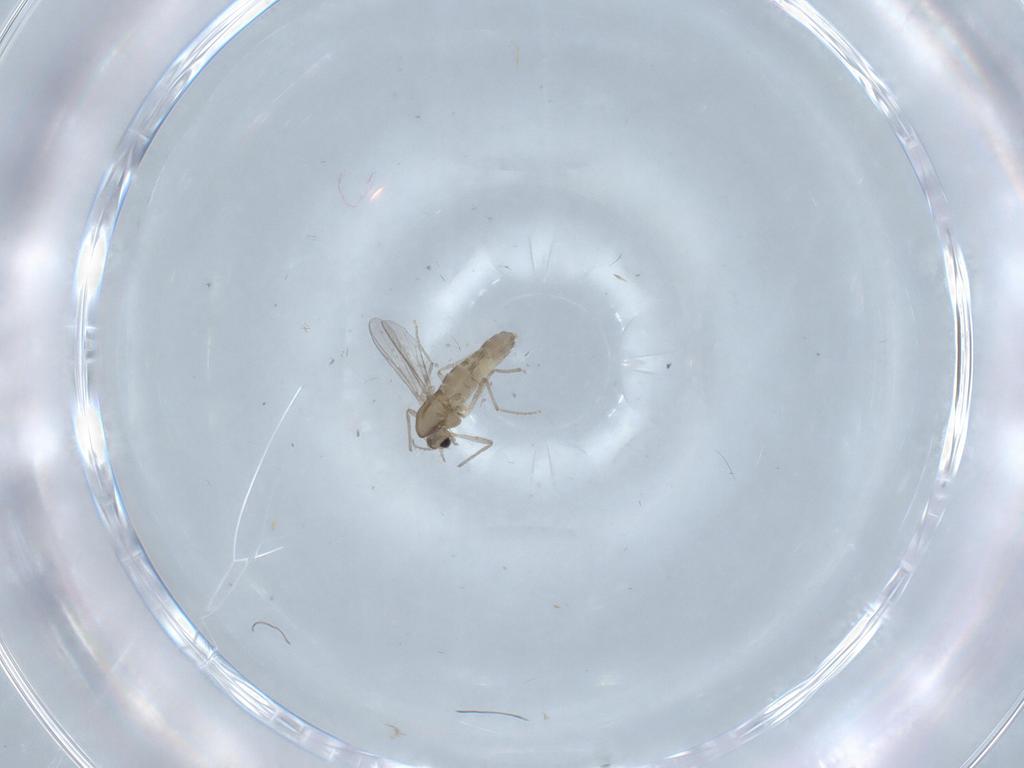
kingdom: Animalia
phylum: Arthropoda
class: Insecta
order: Diptera
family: Chironomidae
